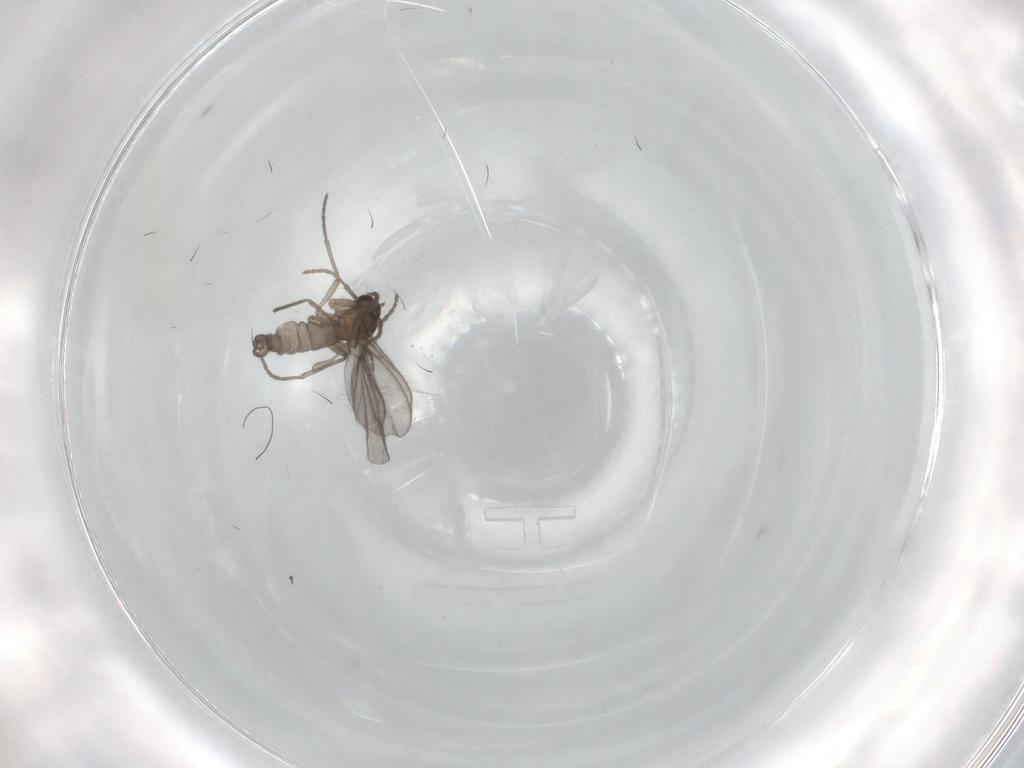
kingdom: Animalia
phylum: Arthropoda
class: Insecta
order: Diptera
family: Sciaridae
